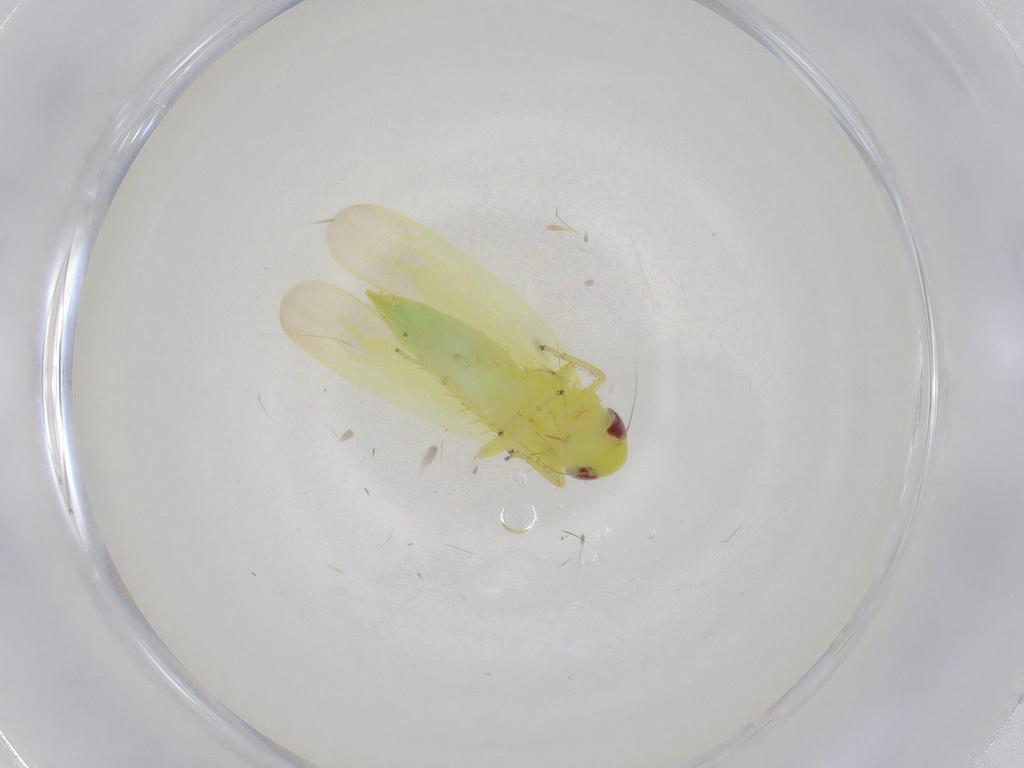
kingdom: Animalia
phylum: Arthropoda
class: Insecta
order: Hemiptera
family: Cicadellidae
